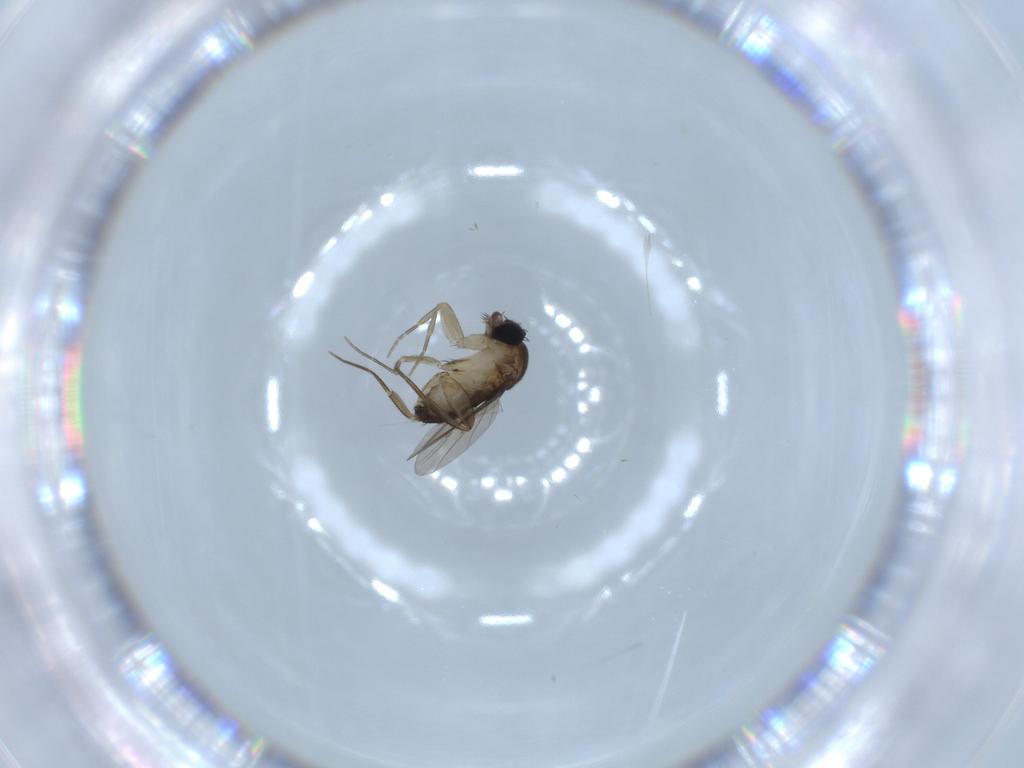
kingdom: Animalia
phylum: Arthropoda
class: Insecta
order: Diptera
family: Phoridae
